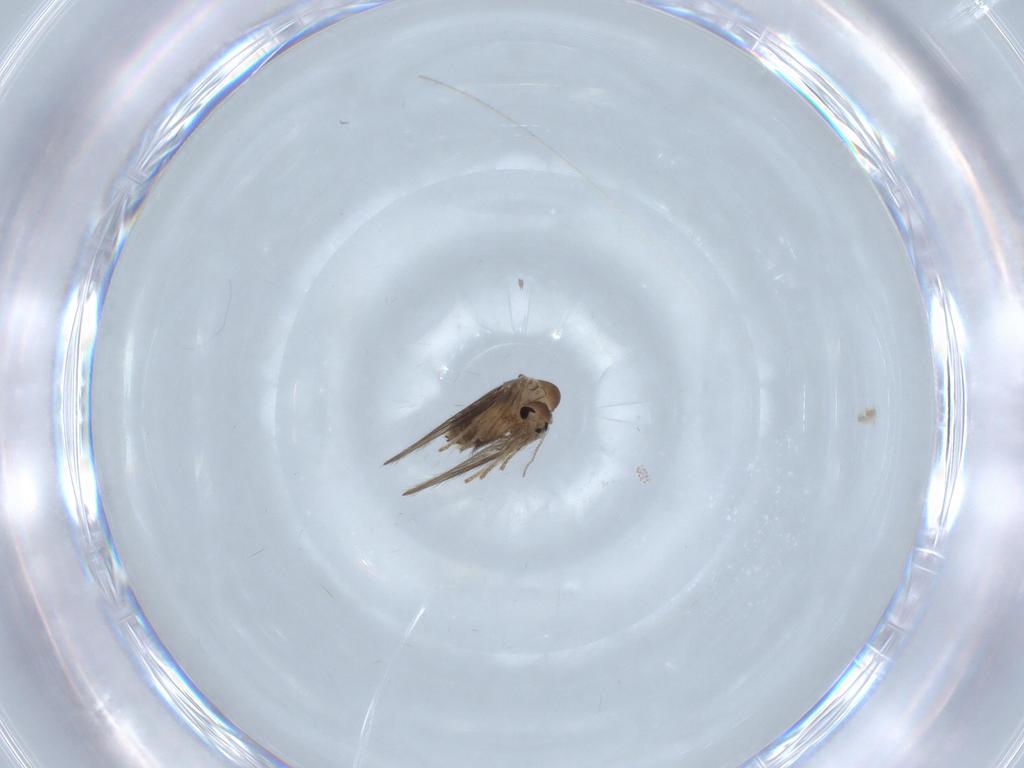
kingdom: Animalia
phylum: Arthropoda
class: Insecta
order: Diptera
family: Dolichopodidae
